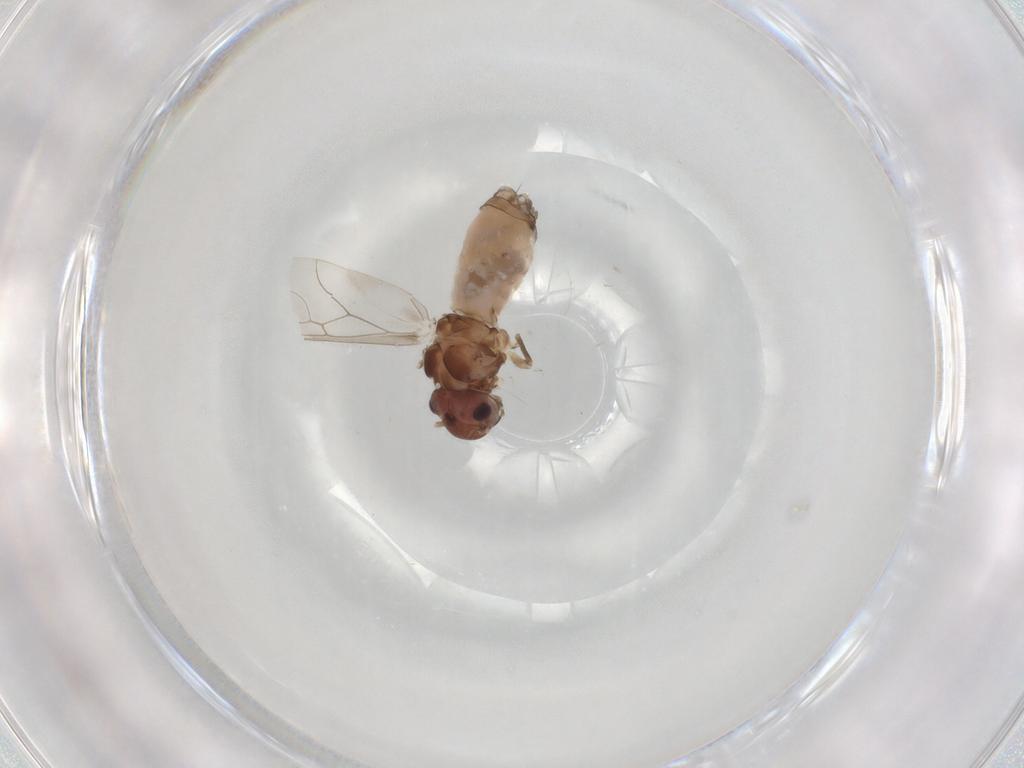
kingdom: Animalia
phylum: Arthropoda
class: Insecta
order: Psocodea
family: Peripsocidae
